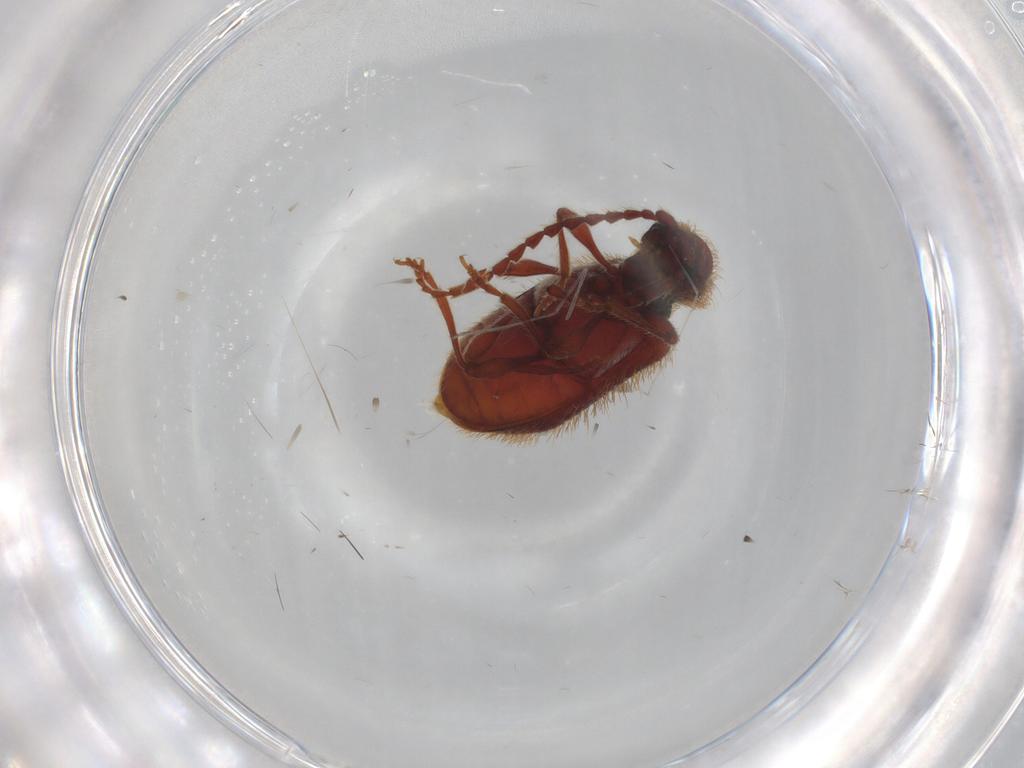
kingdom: Animalia
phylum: Arthropoda
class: Insecta
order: Coleoptera
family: Ptinidae
